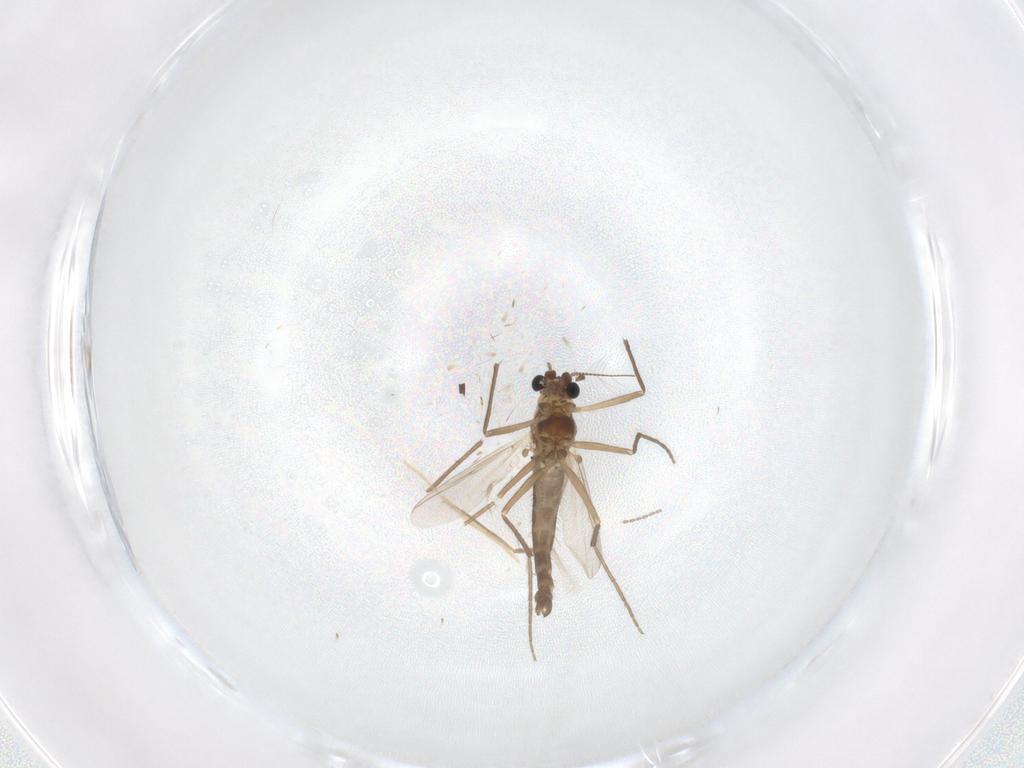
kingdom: Animalia
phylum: Arthropoda
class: Insecta
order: Diptera
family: Chironomidae
